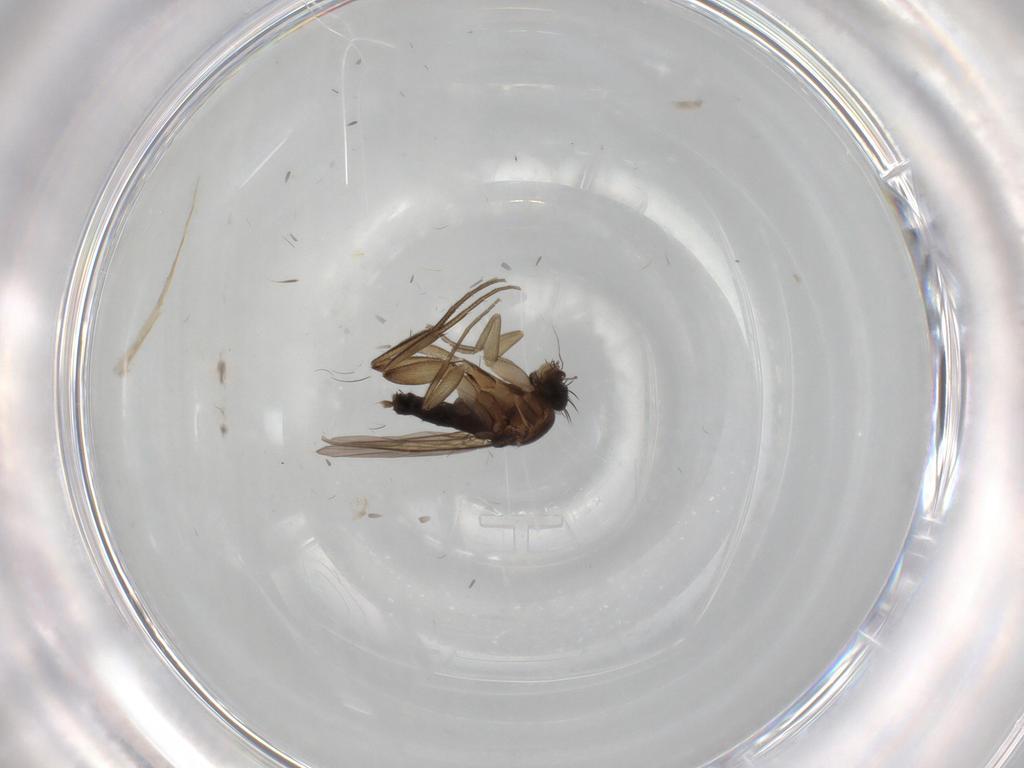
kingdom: Animalia
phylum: Arthropoda
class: Insecta
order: Diptera
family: Phoridae
